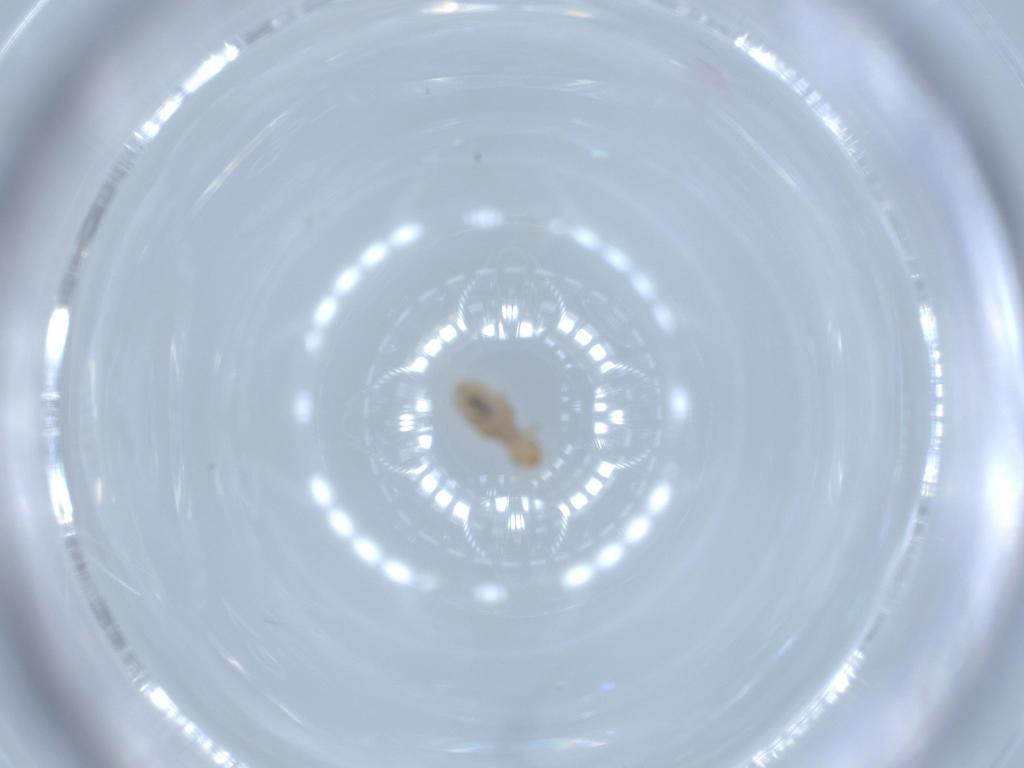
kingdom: Animalia
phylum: Arthropoda
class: Insecta
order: Psocodea
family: Liposcelididae
